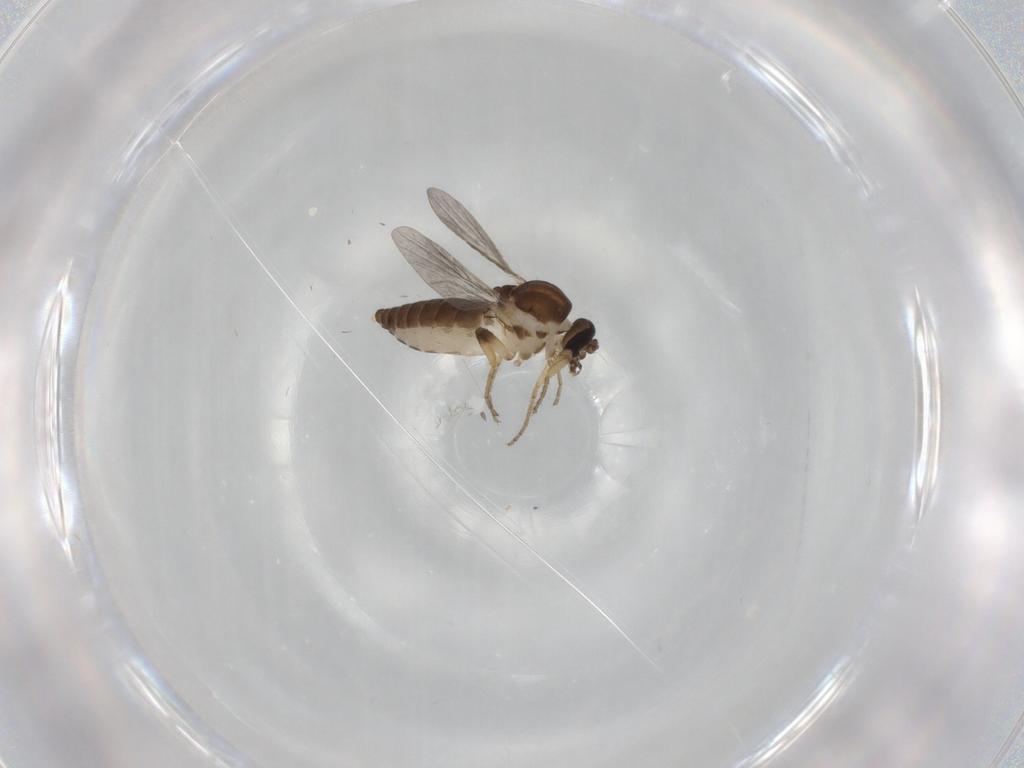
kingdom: Animalia
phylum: Arthropoda
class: Insecta
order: Diptera
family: Ceratopogonidae
